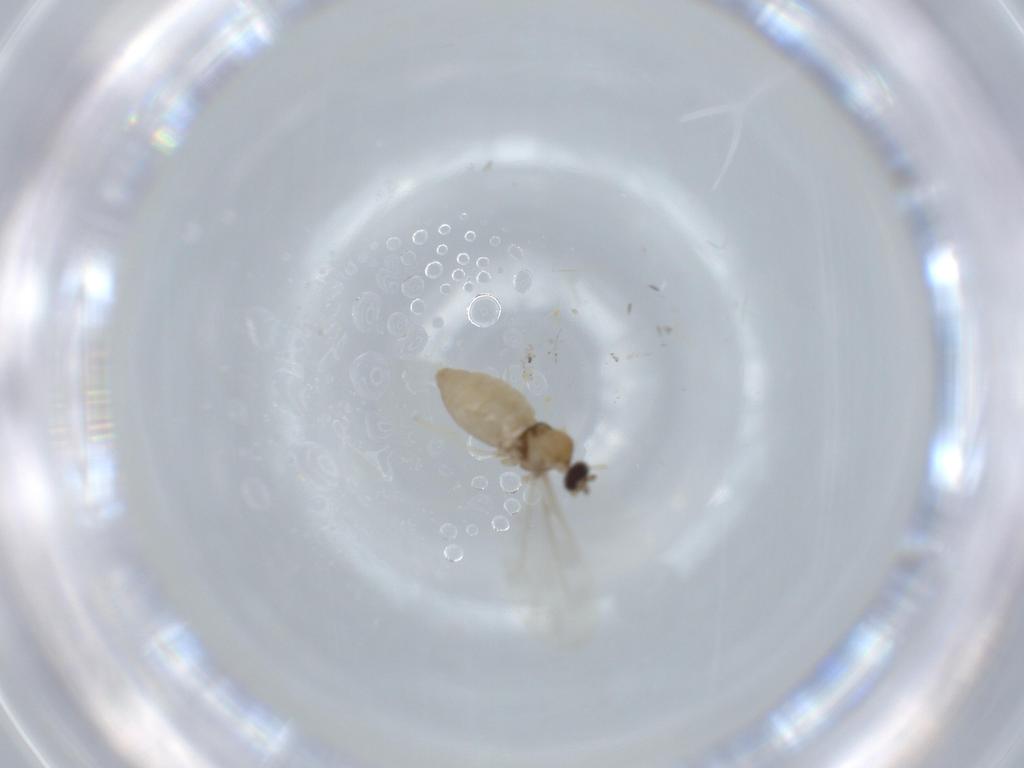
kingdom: Animalia
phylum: Arthropoda
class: Insecta
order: Diptera
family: Cecidomyiidae
